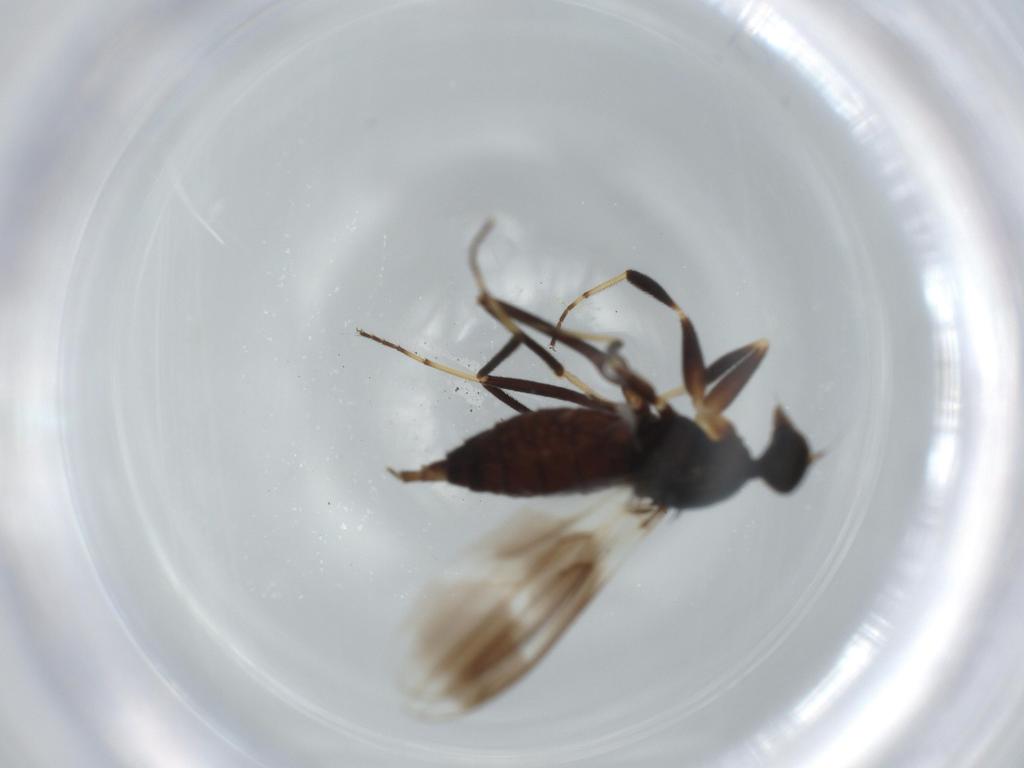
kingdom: Animalia
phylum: Arthropoda
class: Insecta
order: Diptera
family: Hybotidae
